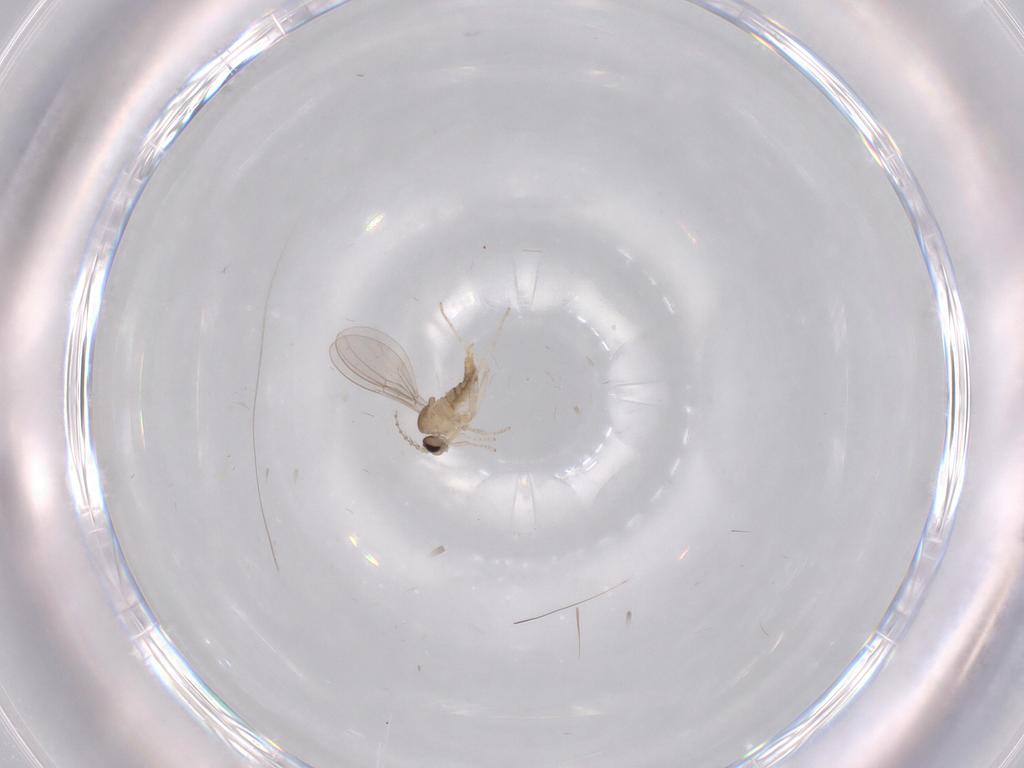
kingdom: Animalia
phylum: Arthropoda
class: Insecta
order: Diptera
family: Cecidomyiidae
